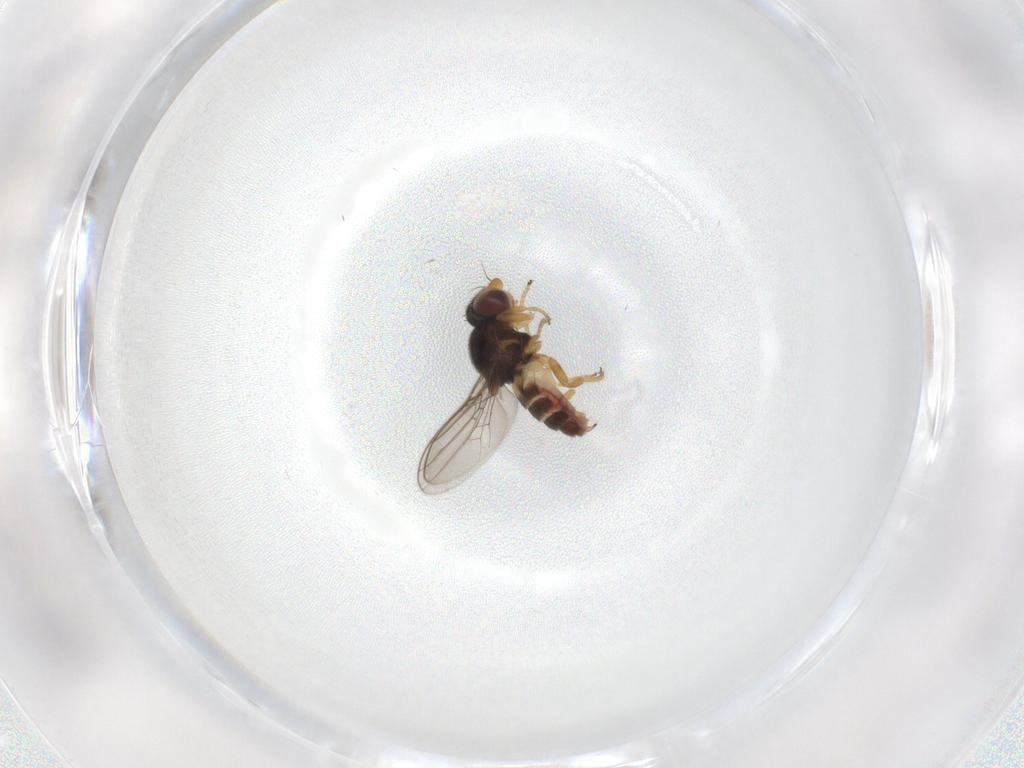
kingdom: Animalia
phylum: Arthropoda
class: Insecta
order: Diptera
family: Chloropidae
